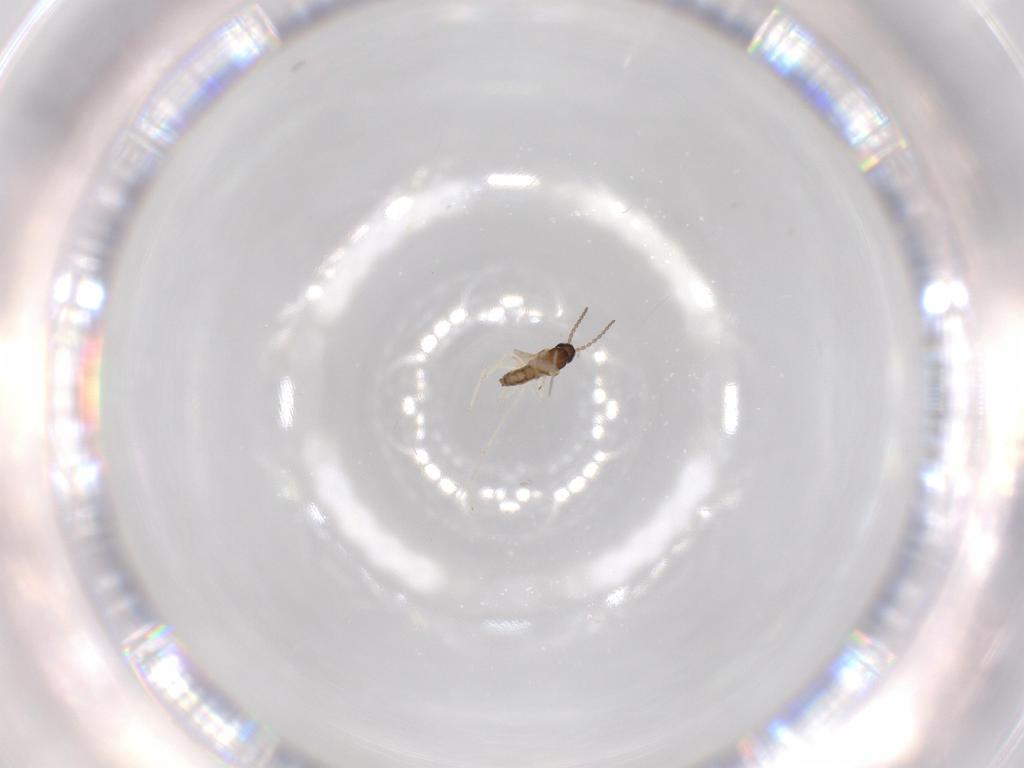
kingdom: Animalia
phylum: Arthropoda
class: Insecta
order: Diptera
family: Cecidomyiidae
